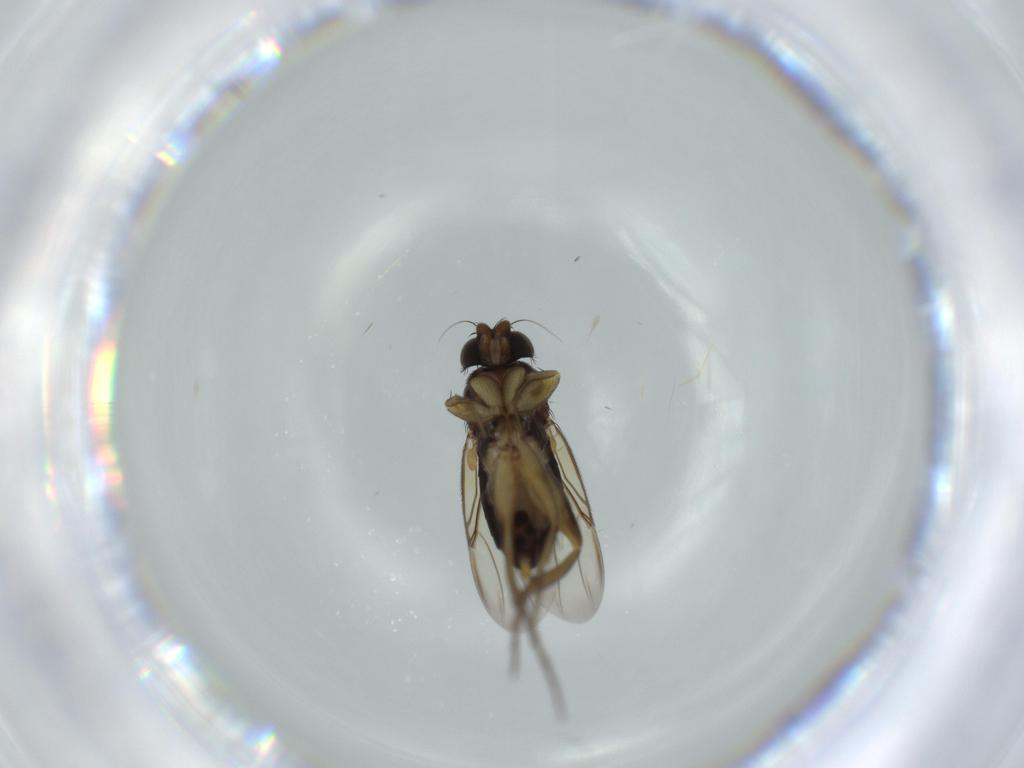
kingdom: Animalia
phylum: Arthropoda
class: Insecta
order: Diptera
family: Phoridae
